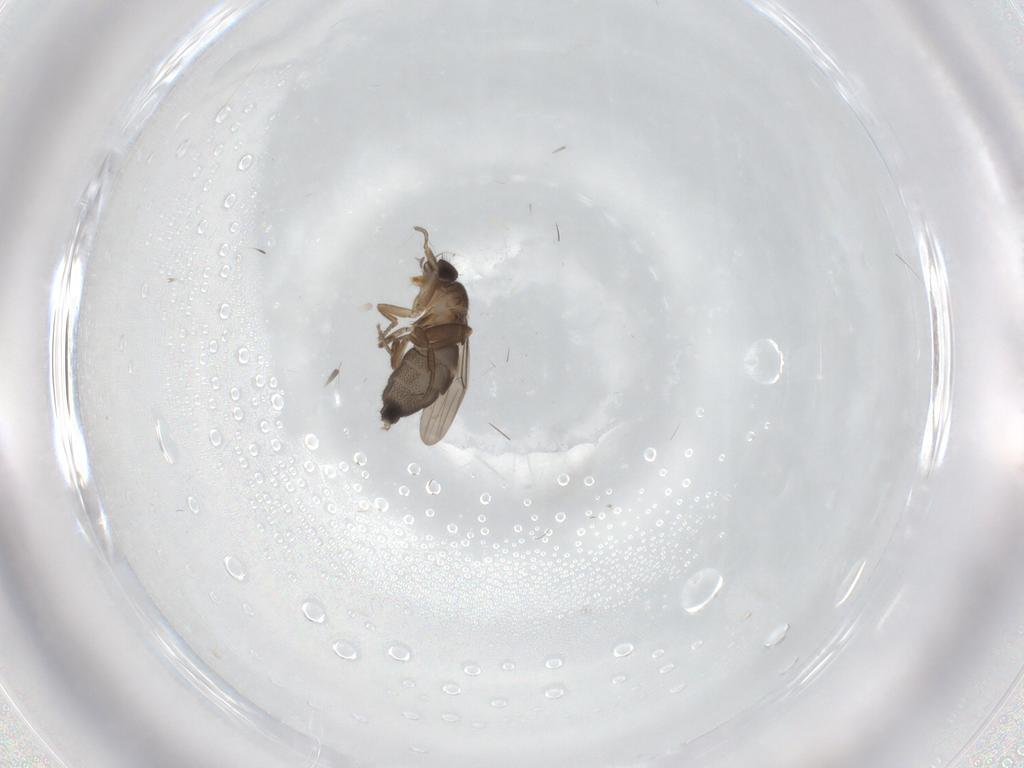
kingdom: Animalia
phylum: Arthropoda
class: Insecta
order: Diptera
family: Phoridae
